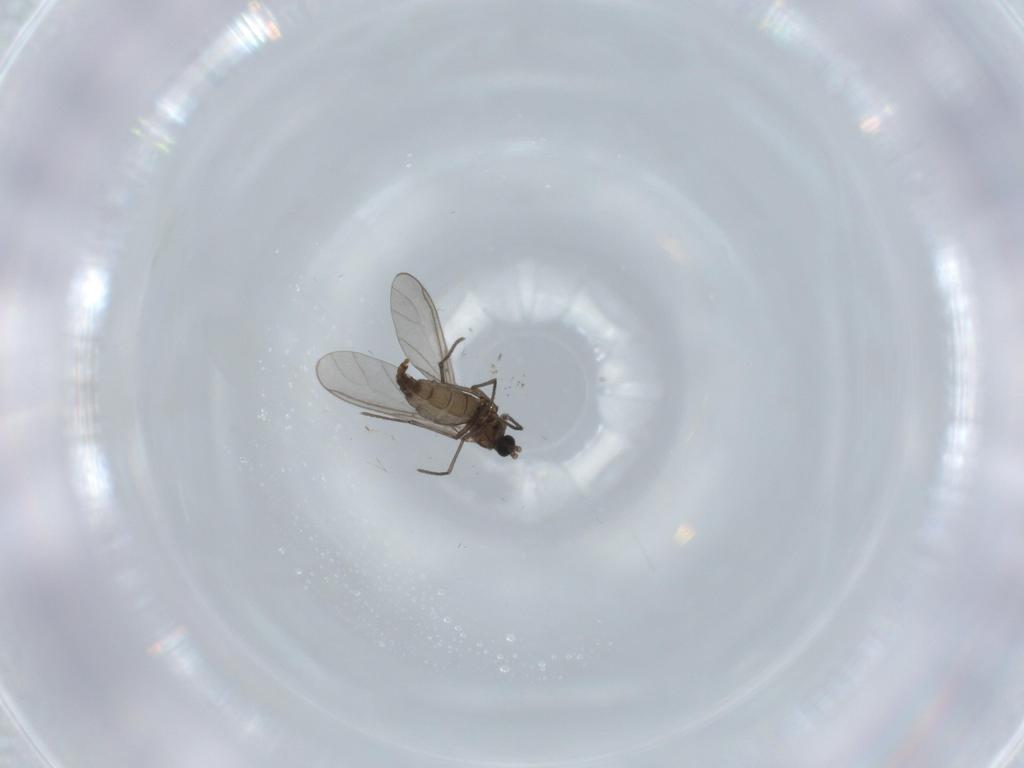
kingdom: Animalia
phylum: Arthropoda
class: Insecta
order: Diptera
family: Sciaridae
